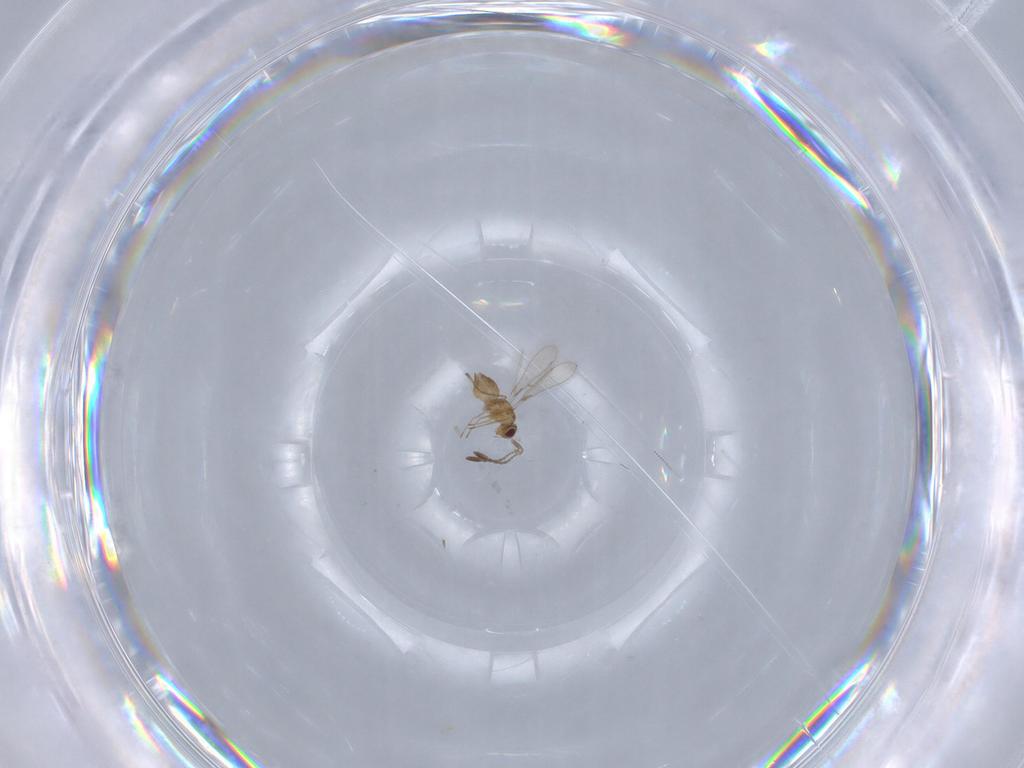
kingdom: Animalia
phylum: Arthropoda
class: Insecta
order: Hymenoptera
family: Mymaridae
